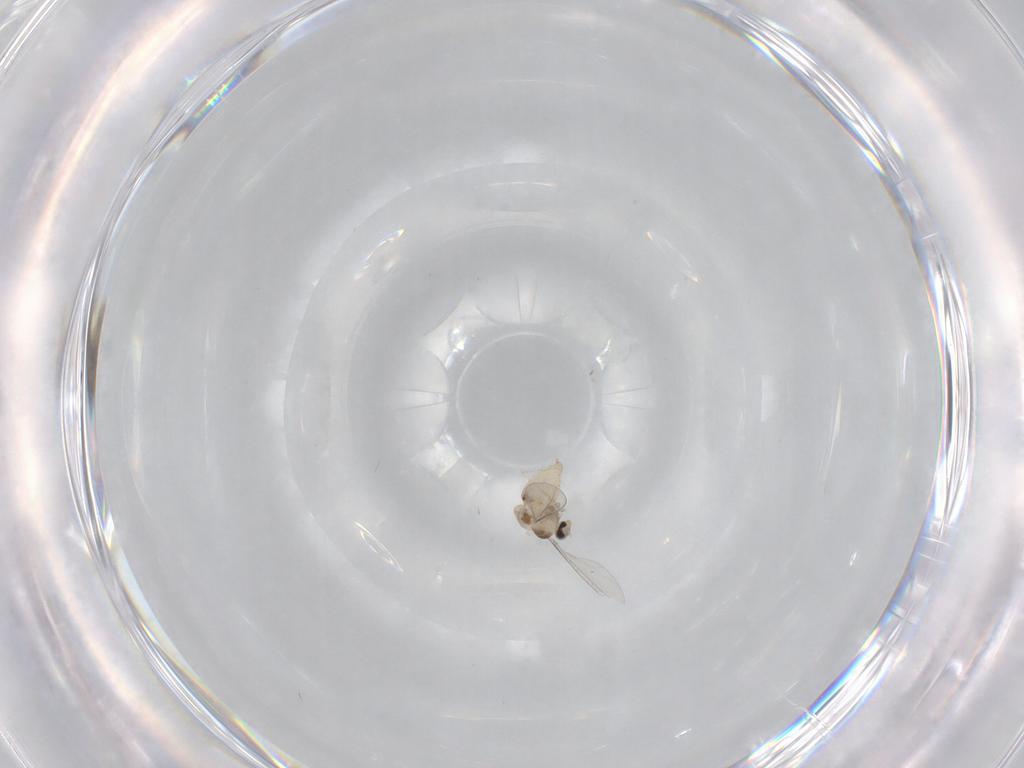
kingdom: Animalia
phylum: Arthropoda
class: Insecta
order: Diptera
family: Cecidomyiidae
